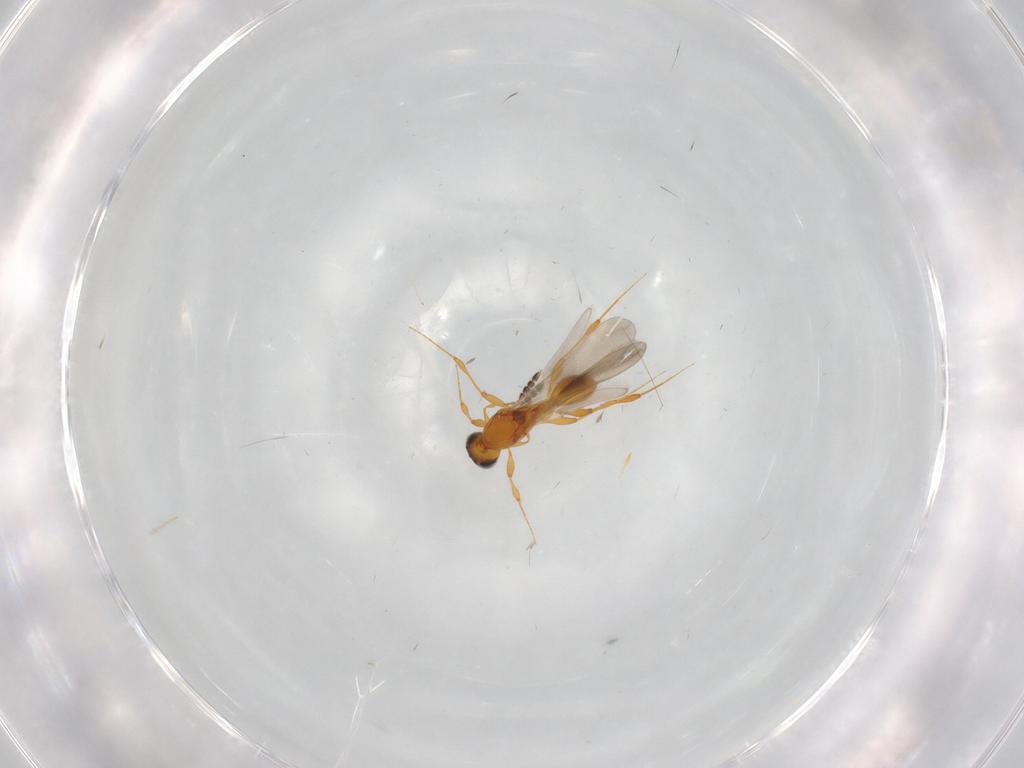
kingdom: Animalia
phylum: Arthropoda
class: Insecta
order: Hymenoptera
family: Platygastridae
